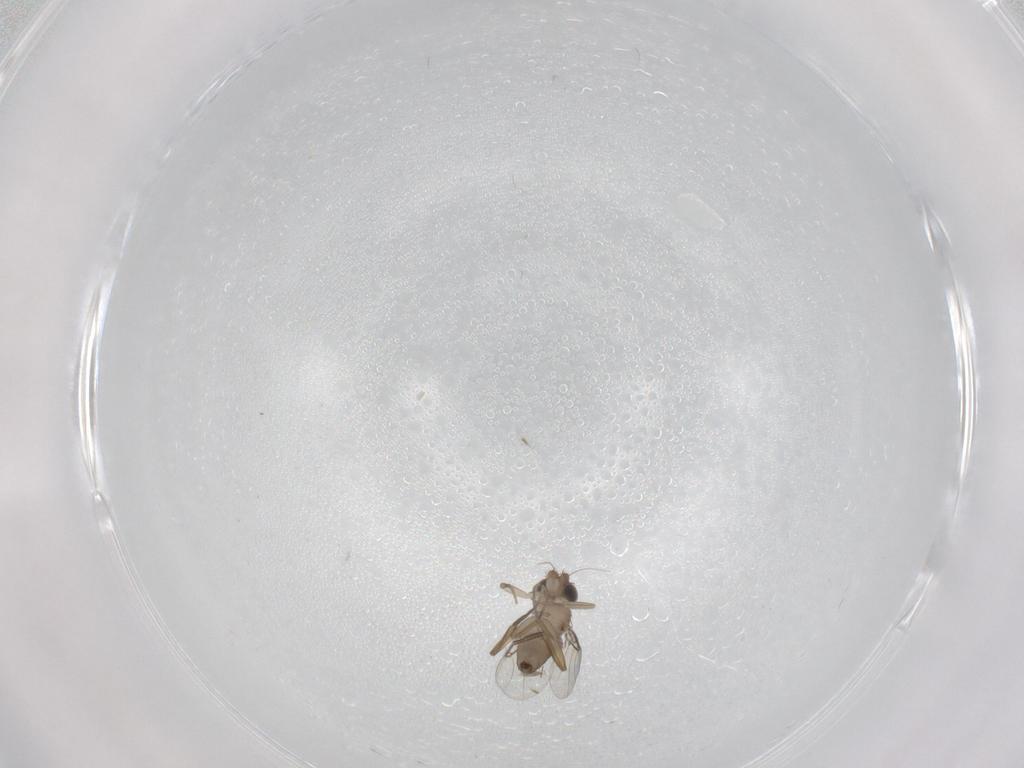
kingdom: Animalia
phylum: Arthropoda
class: Insecta
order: Diptera
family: Phoridae
